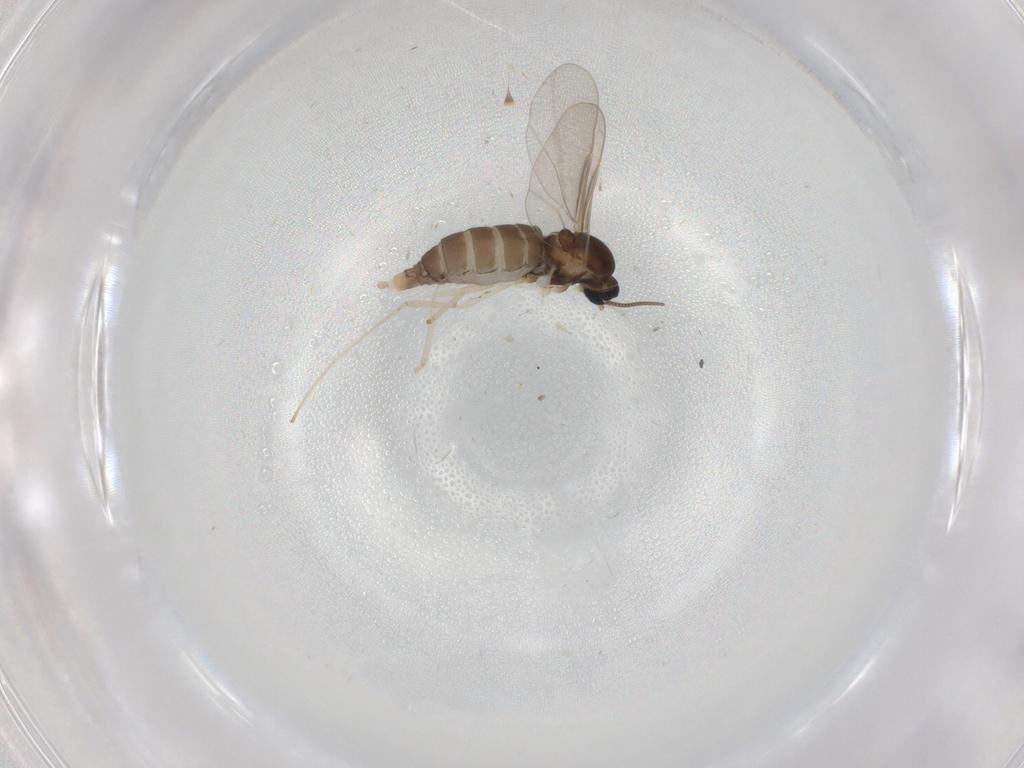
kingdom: Animalia
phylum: Arthropoda
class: Insecta
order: Diptera
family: Cecidomyiidae
